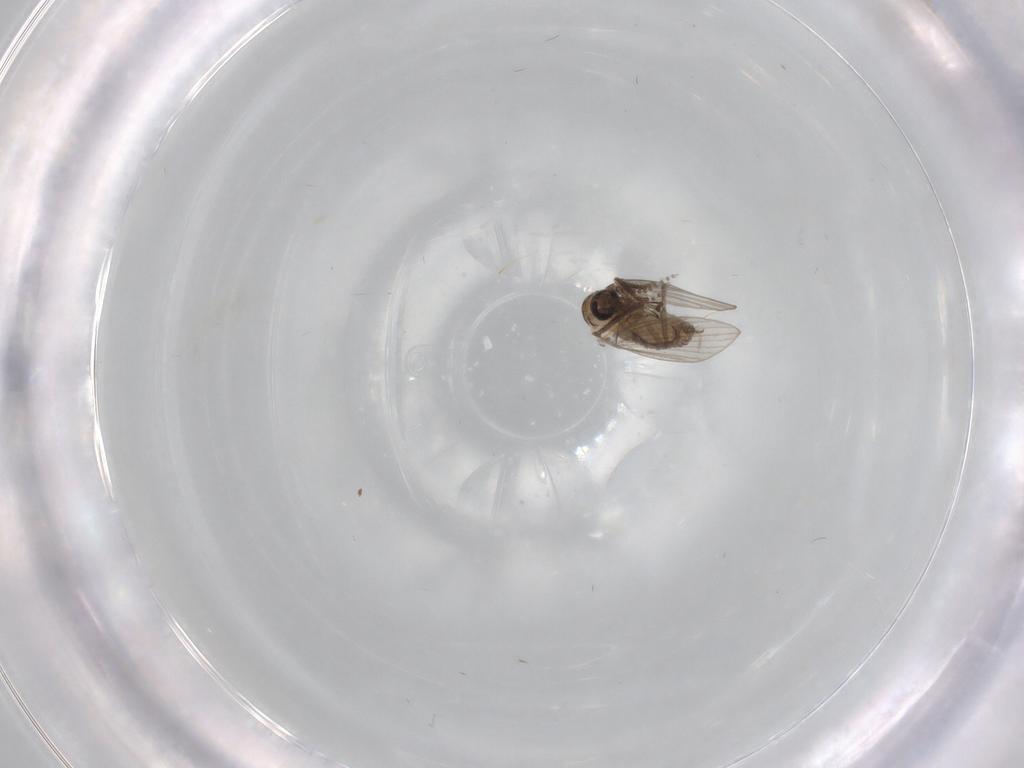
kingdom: Animalia
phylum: Arthropoda
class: Insecta
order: Diptera
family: Psychodidae
